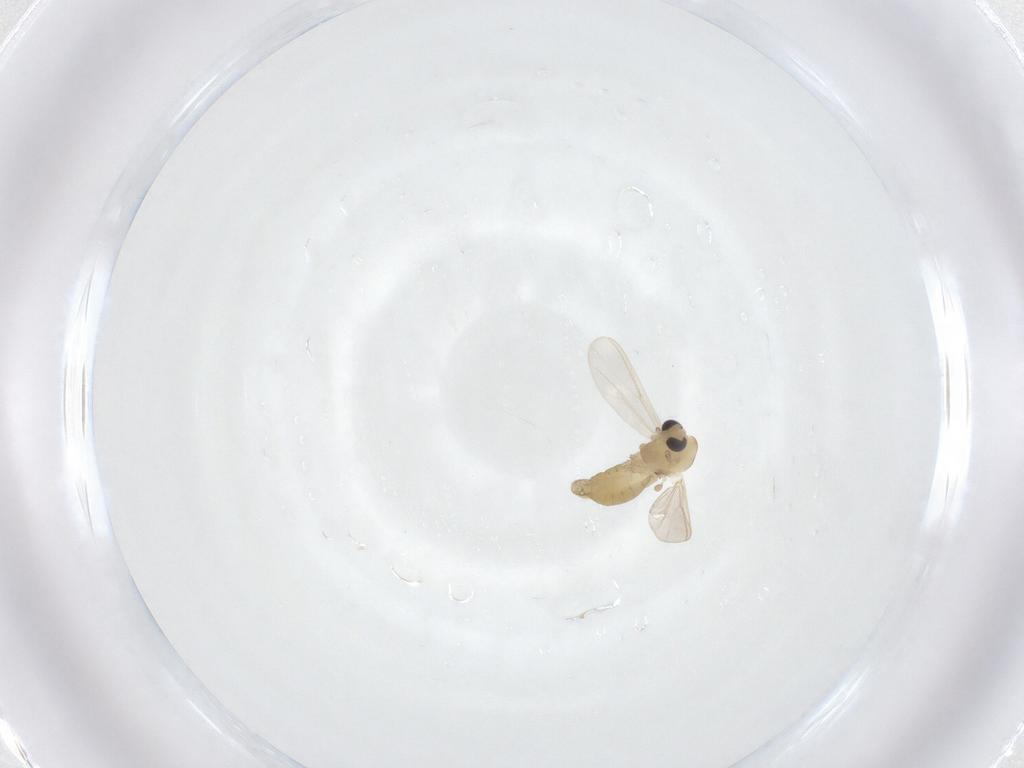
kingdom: Animalia
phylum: Arthropoda
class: Insecta
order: Diptera
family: Chironomidae
